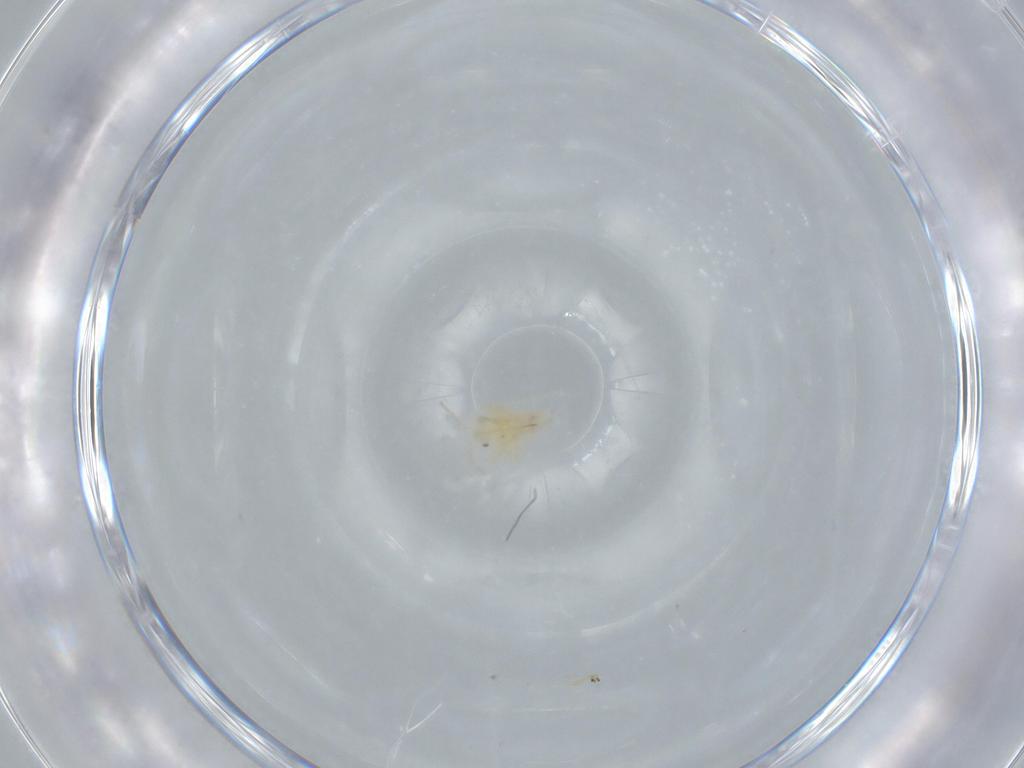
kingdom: Animalia
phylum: Arthropoda
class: Insecta
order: Hemiptera
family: Miridae
